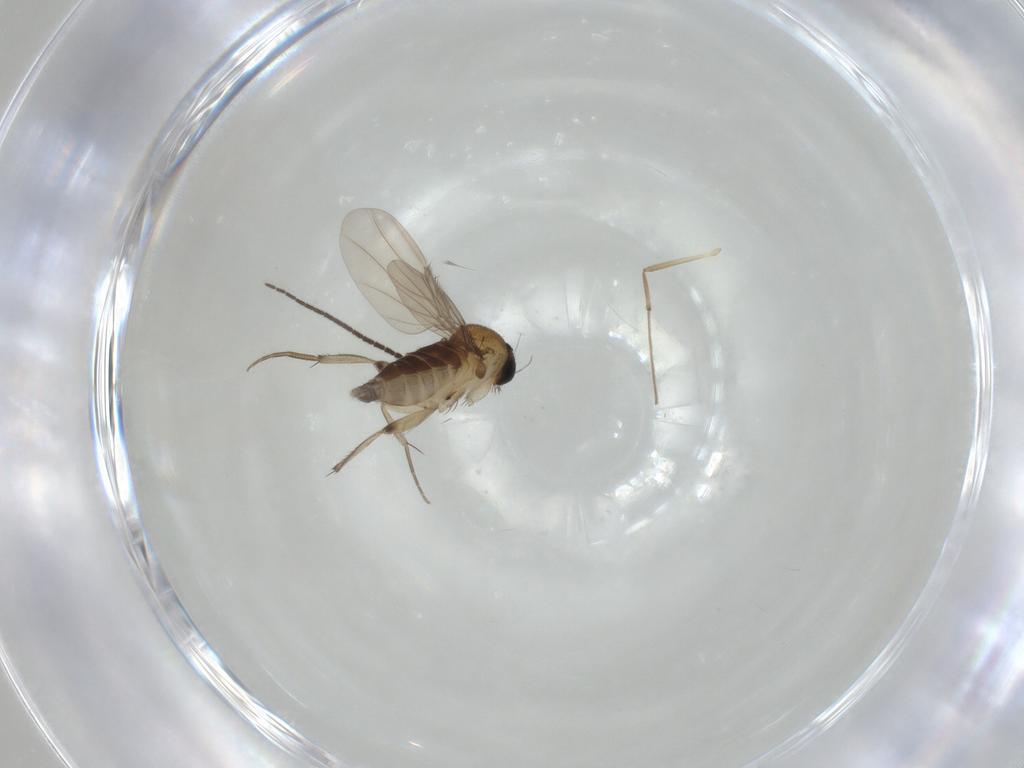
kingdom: Animalia
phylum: Arthropoda
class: Insecta
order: Diptera
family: Phoridae
